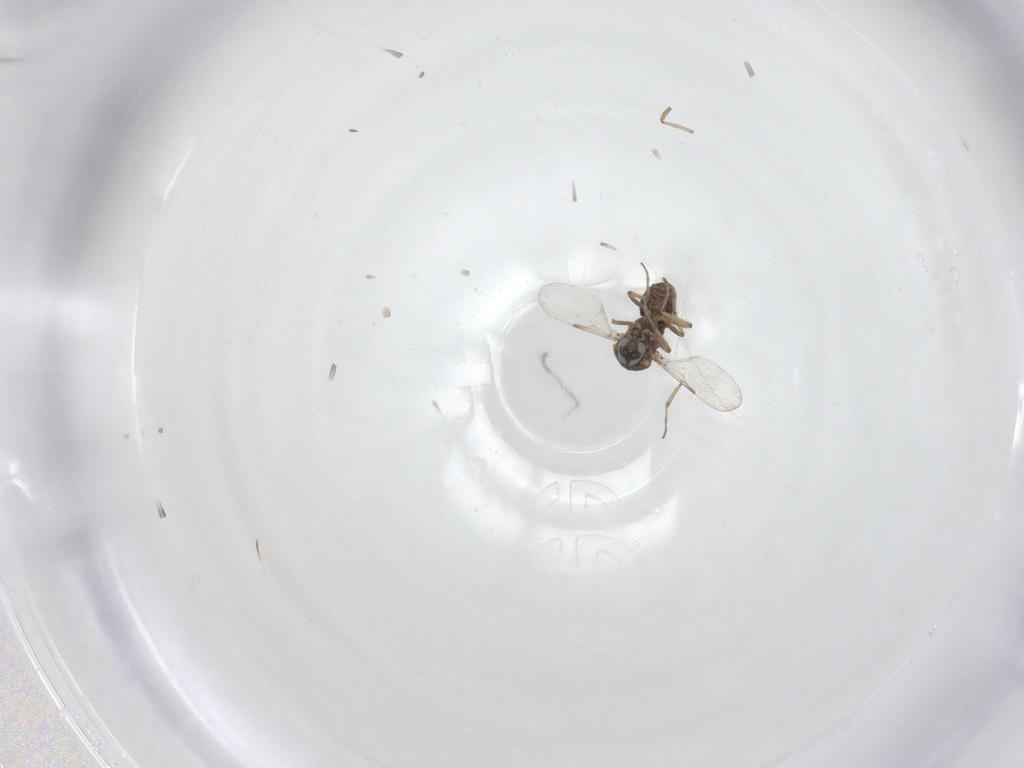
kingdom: Animalia
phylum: Arthropoda
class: Insecta
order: Diptera
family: Ceratopogonidae
